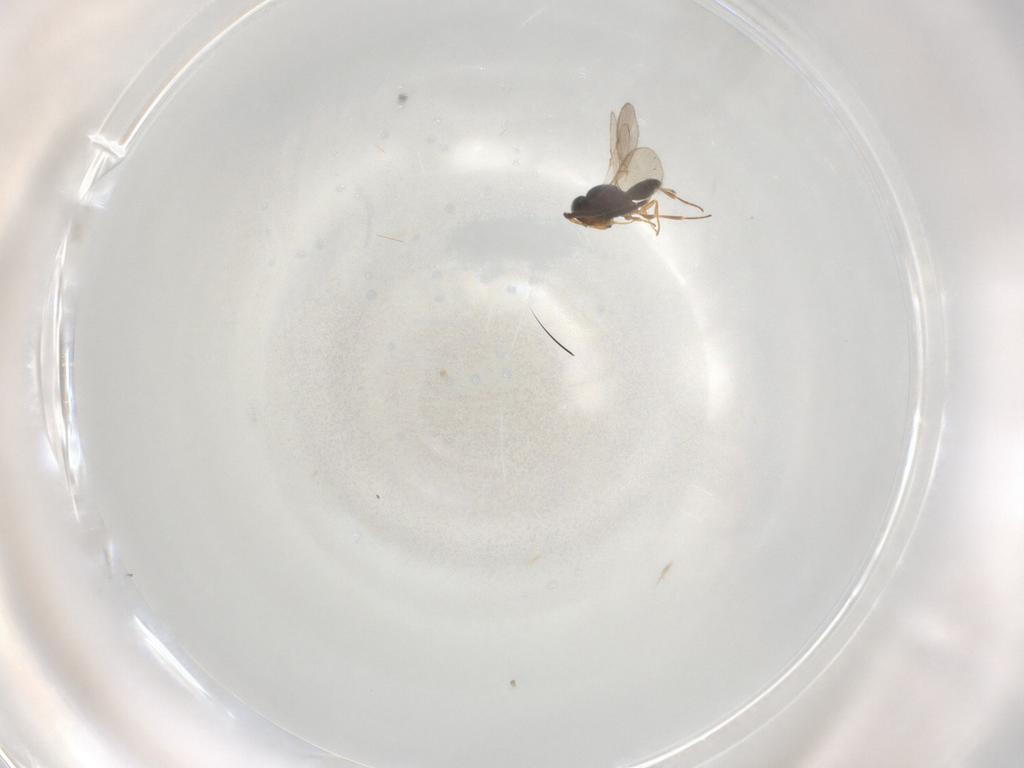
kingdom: Animalia
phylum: Arthropoda
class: Insecta
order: Hymenoptera
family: Scelionidae
